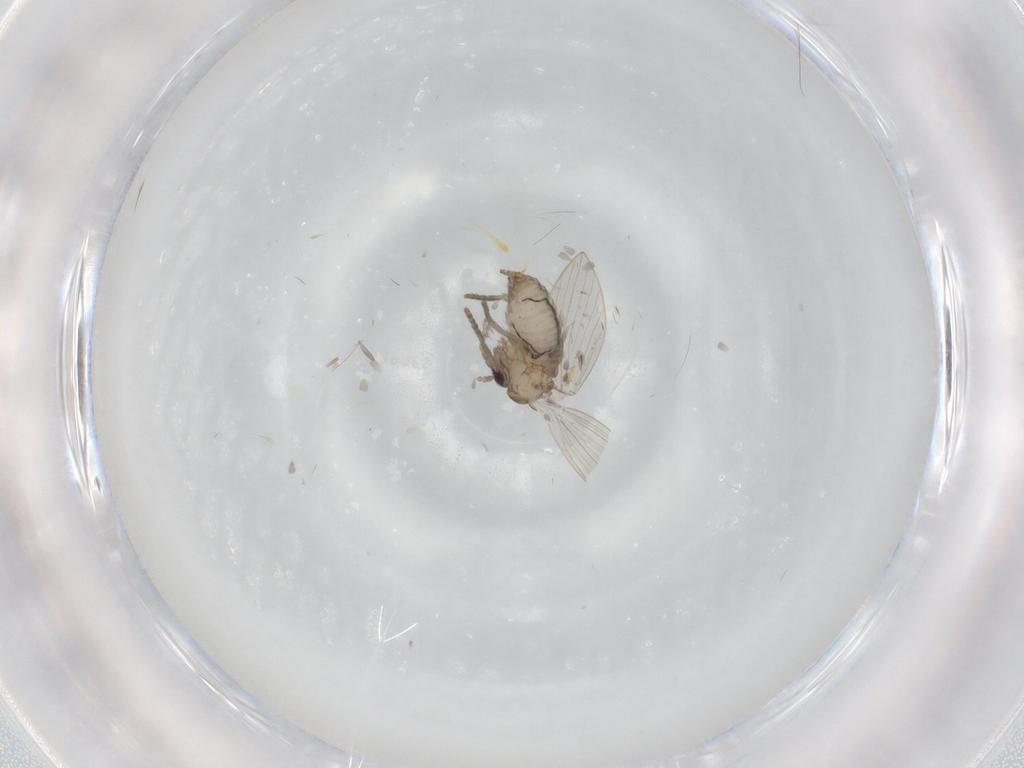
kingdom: Animalia
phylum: Arthropoda
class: Insecta
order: Diptera
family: Psychodidae
